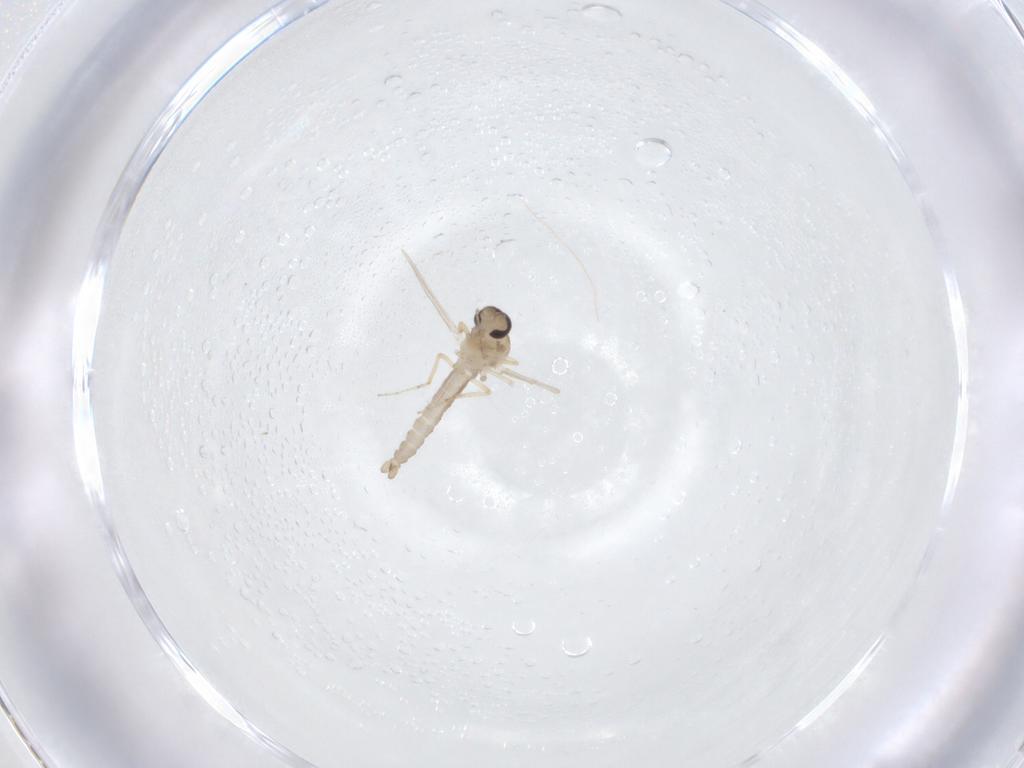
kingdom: Animalia
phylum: Arthropoda
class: Insecta
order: Diptera
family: Ceratopogonidae
